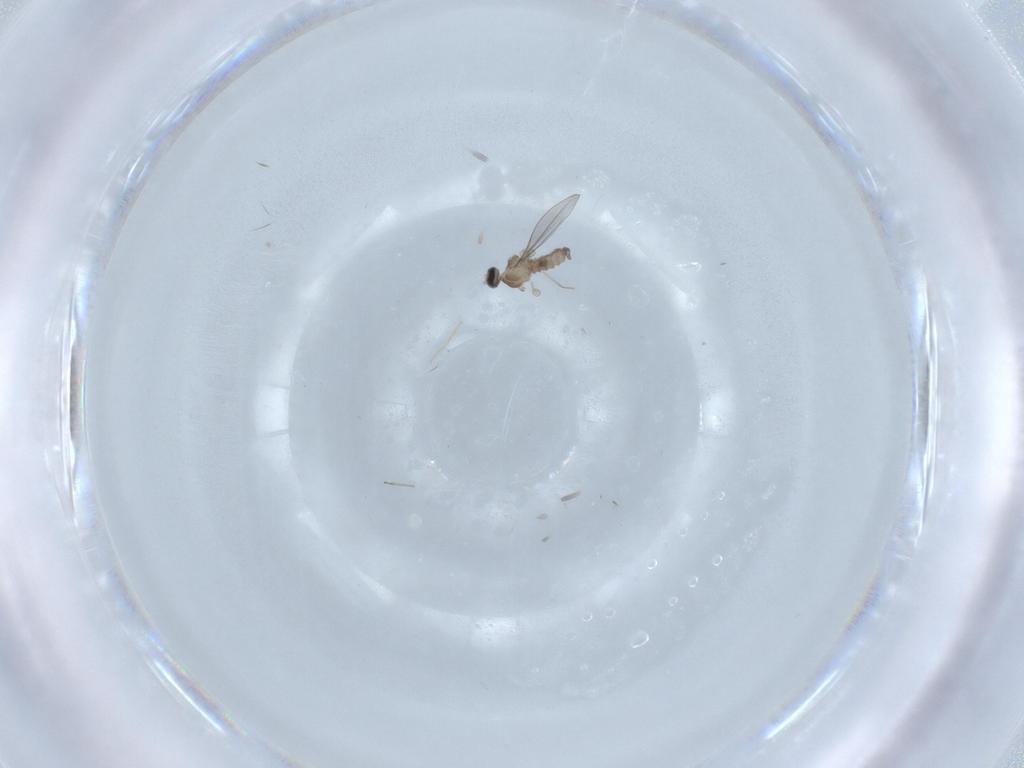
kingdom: Animalia
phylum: Arthropoda
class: Insecta
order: Diptera
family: Cecidomyiidae
